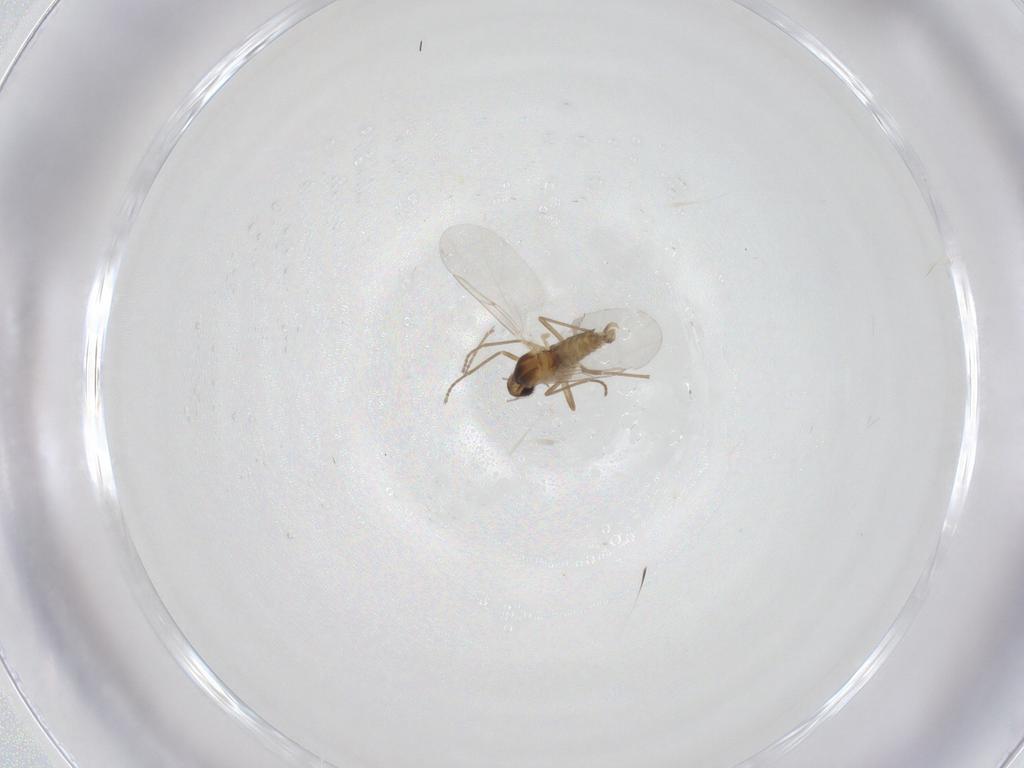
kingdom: Animalia
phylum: Arthropoda
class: Insecta
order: Diptera
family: Cecidomyiidae
